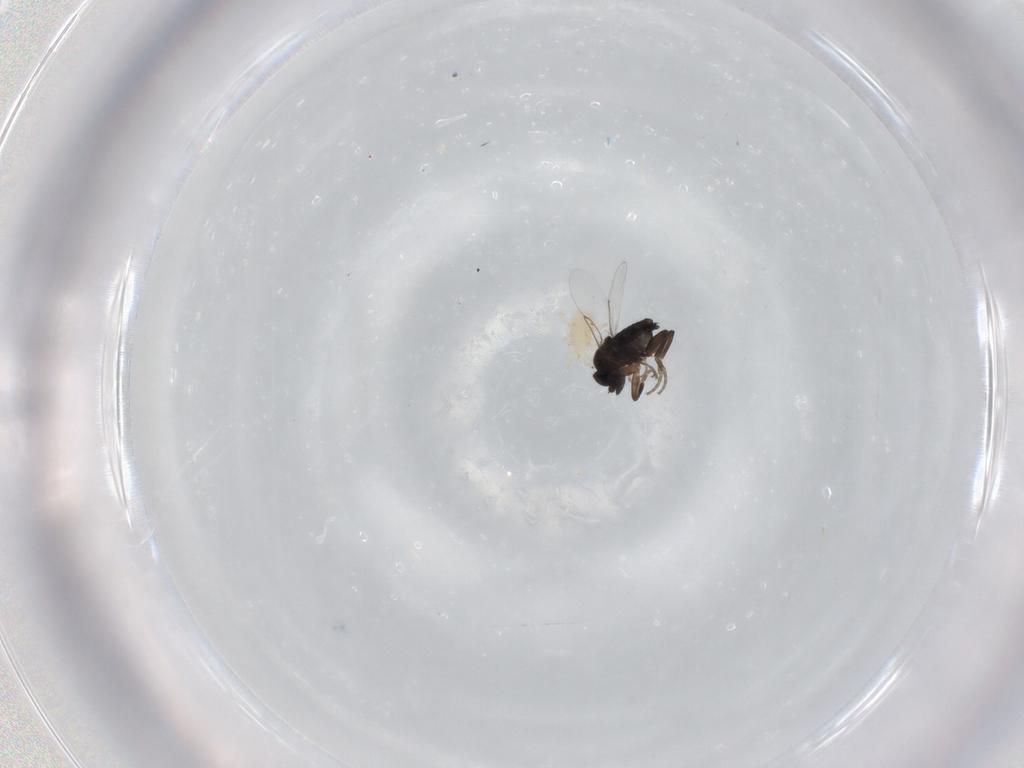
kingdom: Animalia
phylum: Arthropoda
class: Insecta
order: Diptera
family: Phoridae
